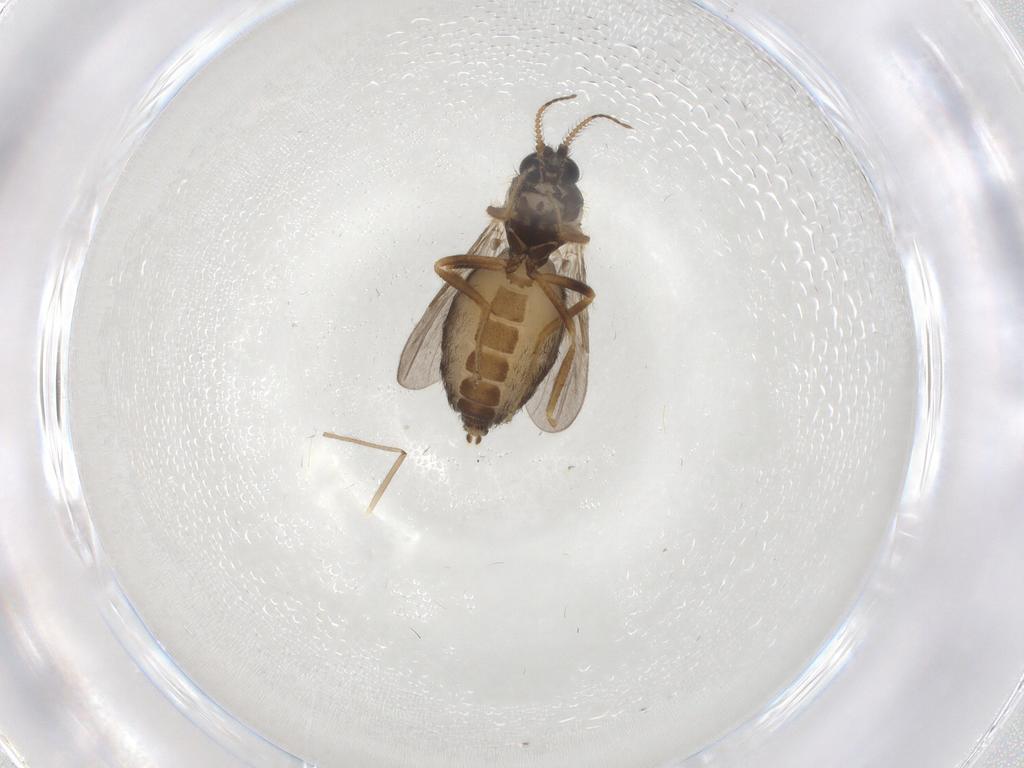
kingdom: Animalia
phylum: Arthropoda
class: Insecta
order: Diptera
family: Ceratopogonidae
